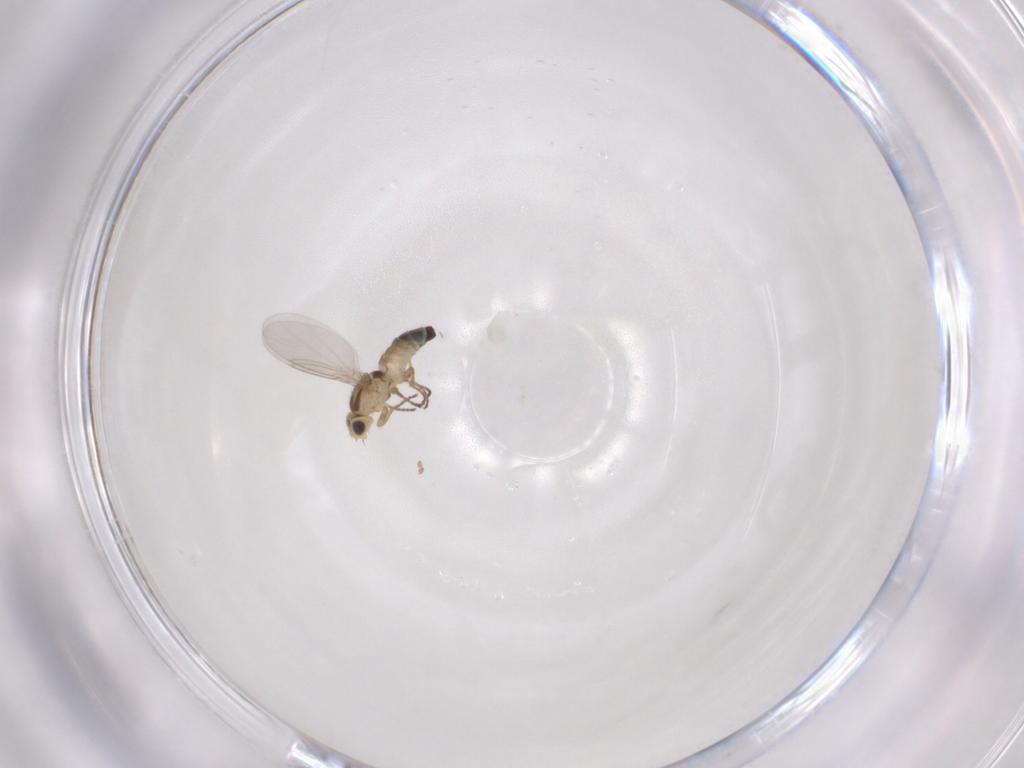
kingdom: Animalia
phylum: Arthropoda
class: Insecta
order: Diptera
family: Agromyzidae
